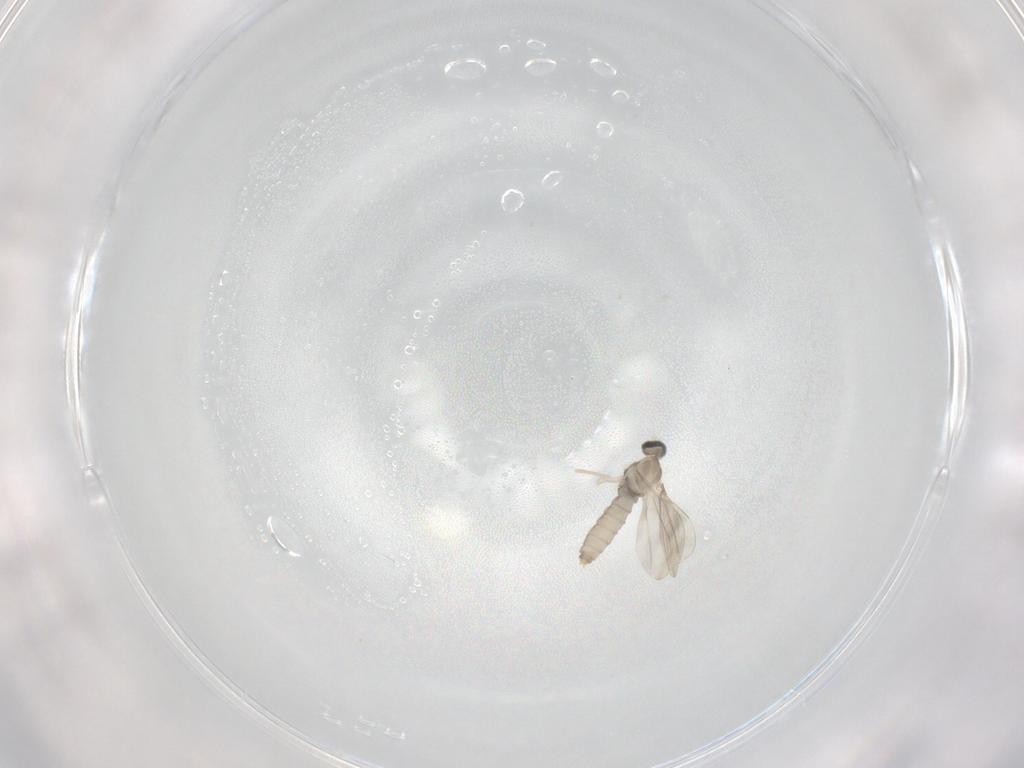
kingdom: Animalia
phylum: Arthropoda
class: Insecta
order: Diptera
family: Cecidomyiidae
